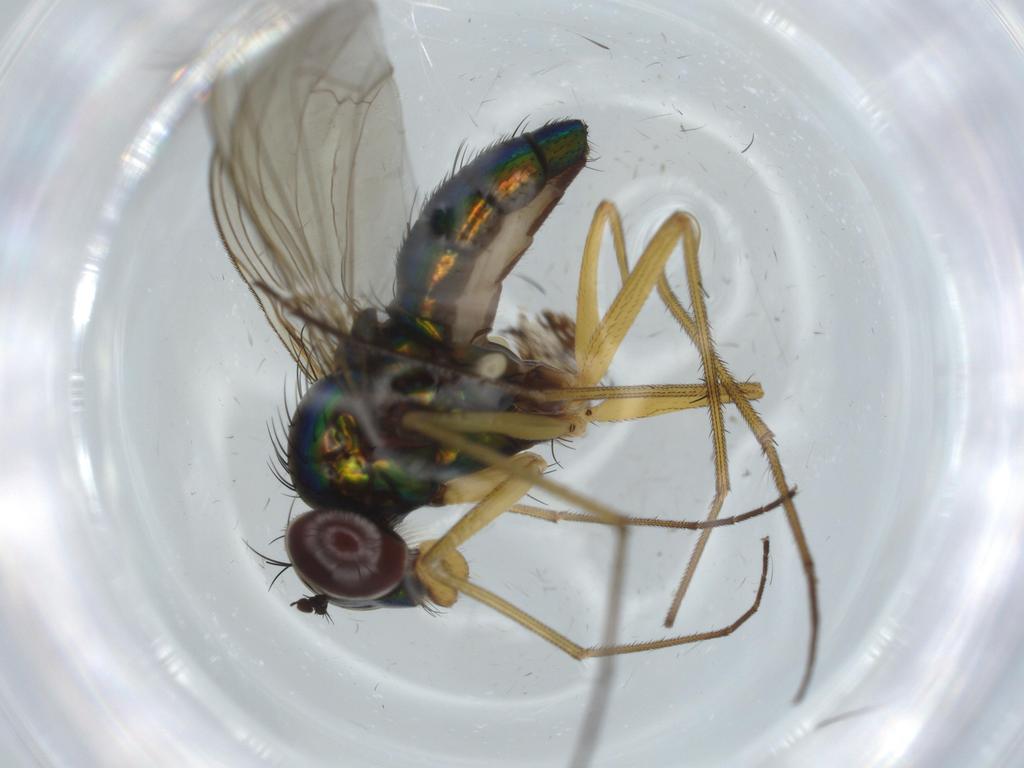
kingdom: Animalia
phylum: Arthropoda
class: Insecta
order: Diptera
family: Dolichopodidae
